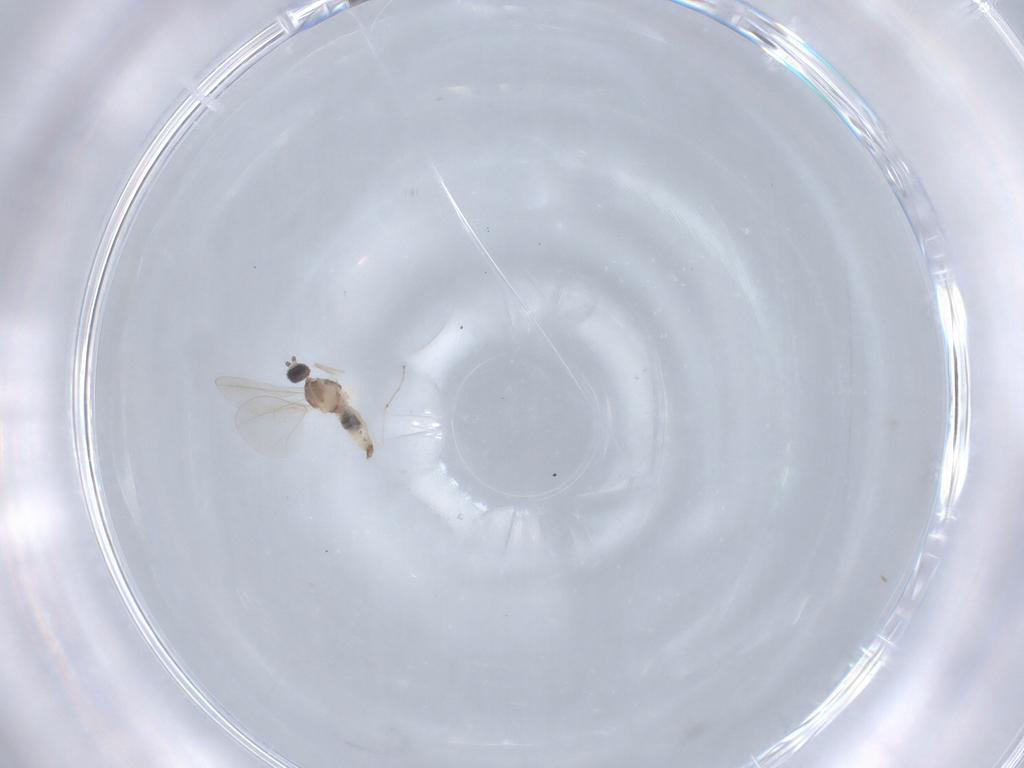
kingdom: Animalia
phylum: Arthropoda
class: Insecta
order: Diptera
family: Cecidomyiidae
